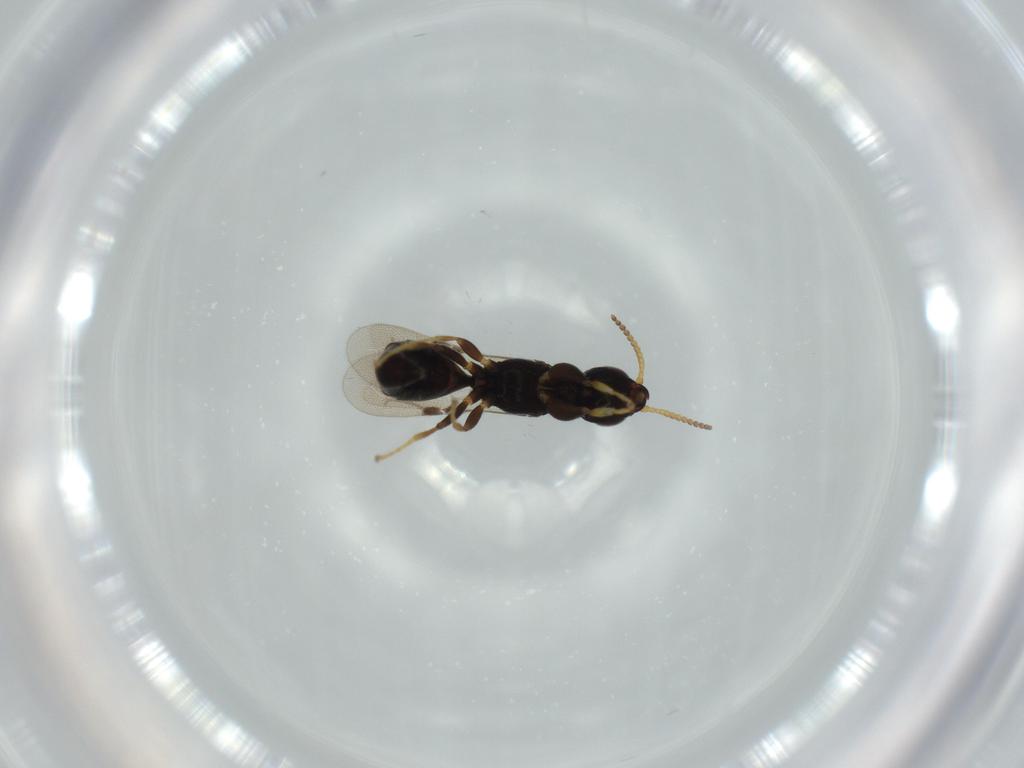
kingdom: Animalia
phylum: Arthropoda
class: Insecta
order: Hymenoptera
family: Bethylidae
